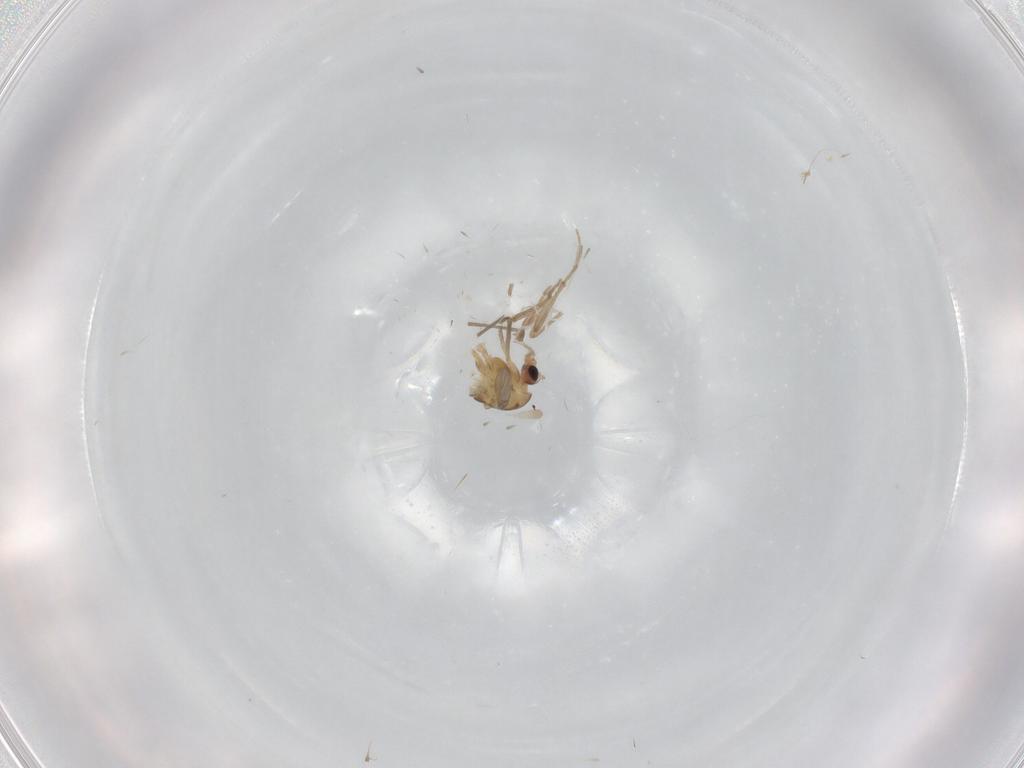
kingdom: Animalia
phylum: Arthropoda
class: Insecta
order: Diptera
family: Chironomidae
